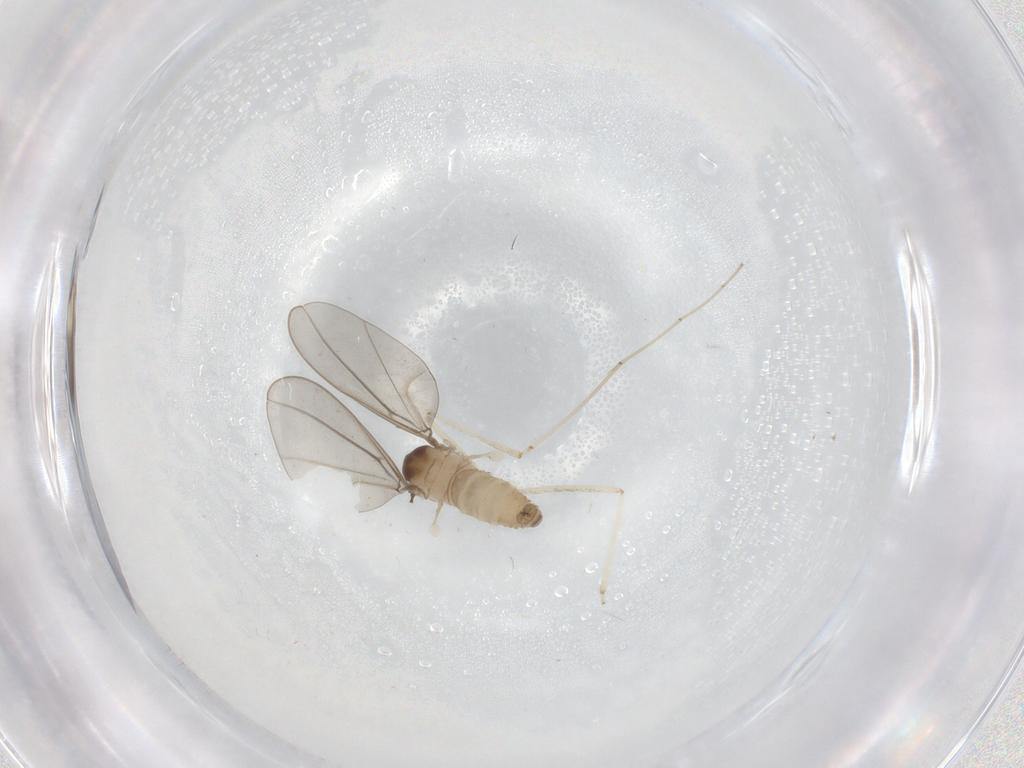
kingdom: Animalia
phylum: Arthropoda
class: Insecta
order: Diptera
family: Cecidomyiidae
